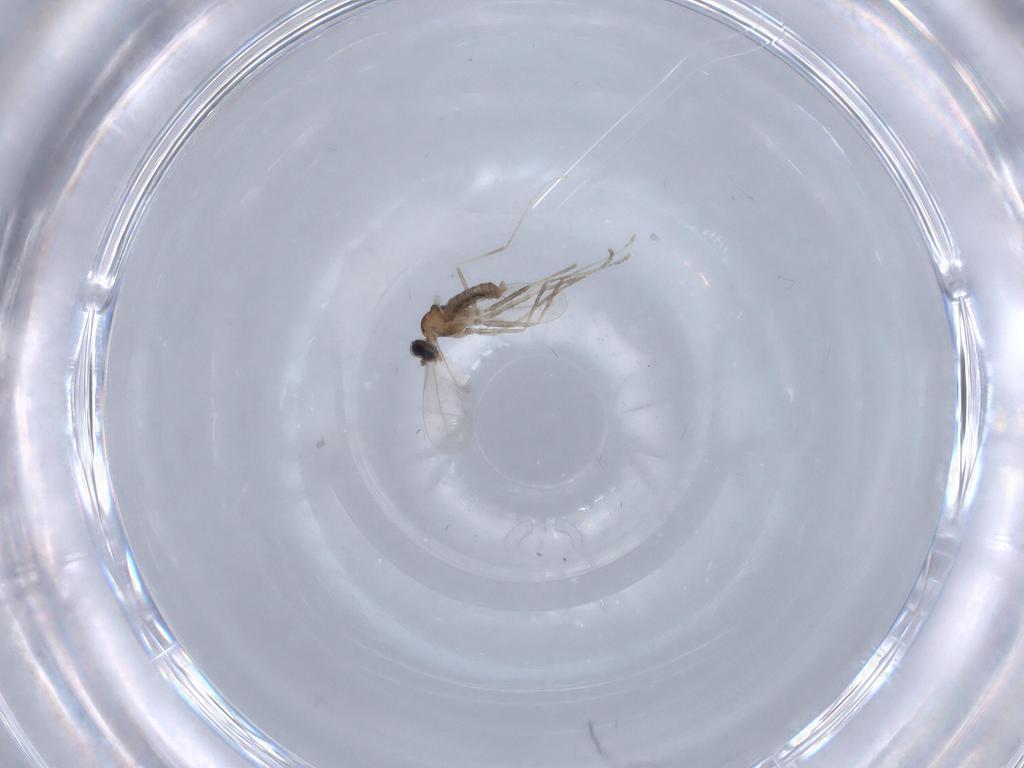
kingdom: Animalia
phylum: Arthropoda
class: Insecta
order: Diptera
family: Cecidomyiidae
